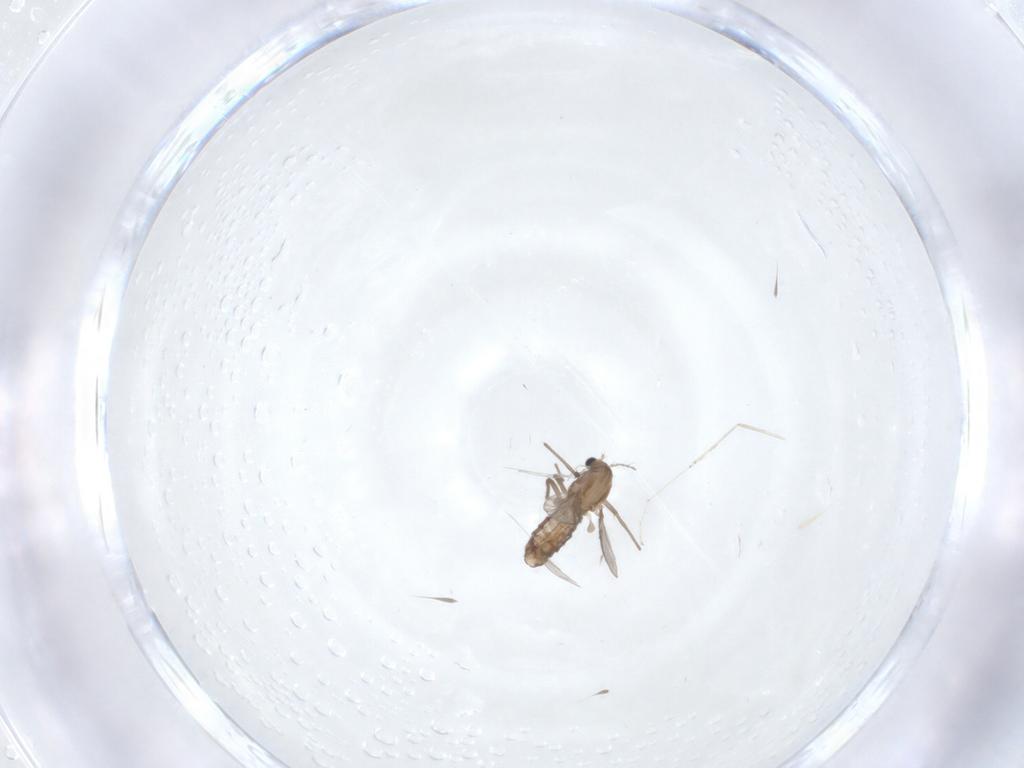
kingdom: Animalia
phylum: Arthropoda
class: Insecta
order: Diptera
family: Chironomidae
